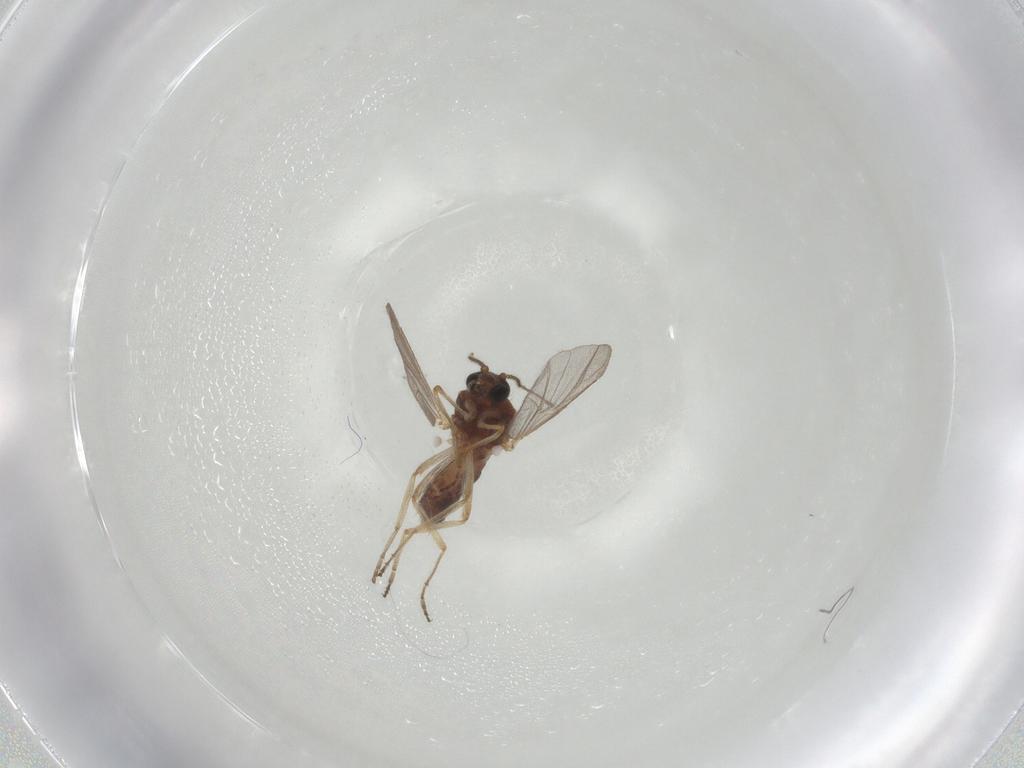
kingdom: Animalia
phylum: Arthropoda
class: Insecta
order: Diptera
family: Ceratopogonidae
